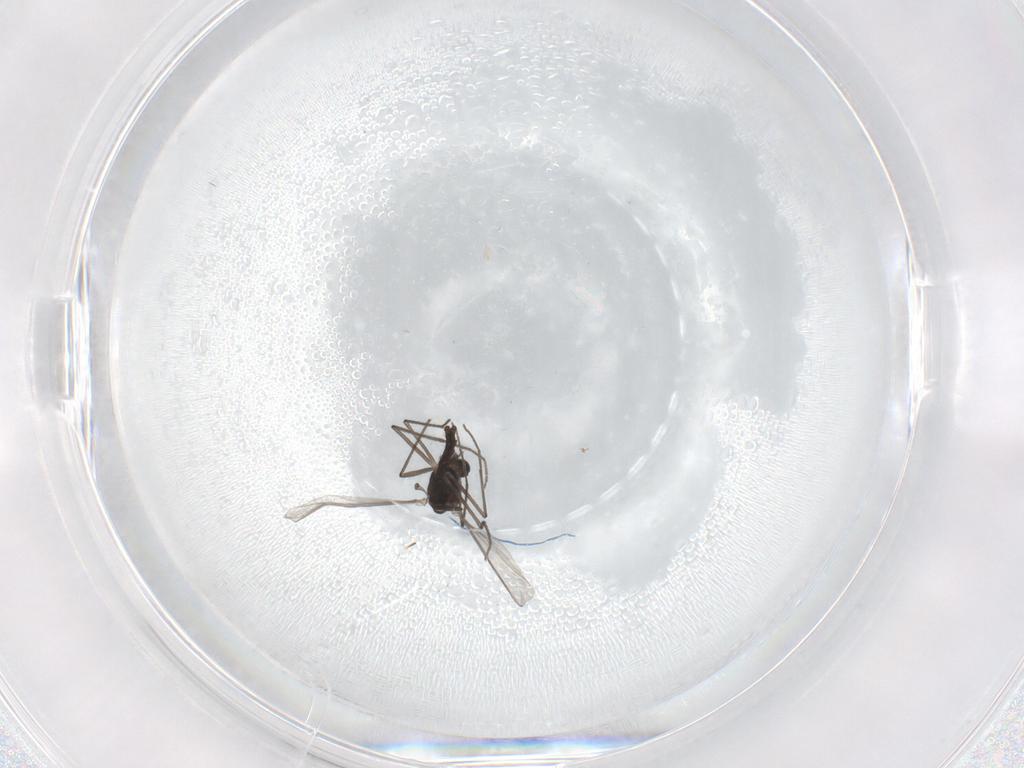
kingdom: Animalia
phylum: Arthropoda
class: Insecta
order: Diptera
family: Chironomidae
